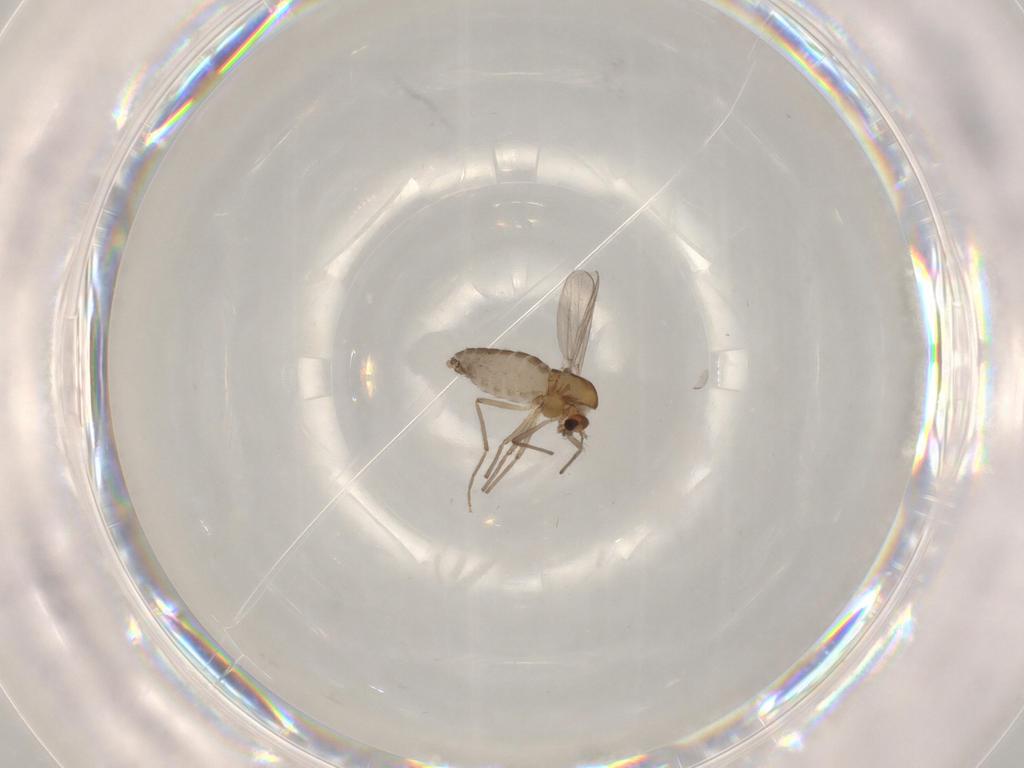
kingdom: Animalia
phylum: Arthropoda
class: Insecta
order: Diptera
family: Chironomidae
